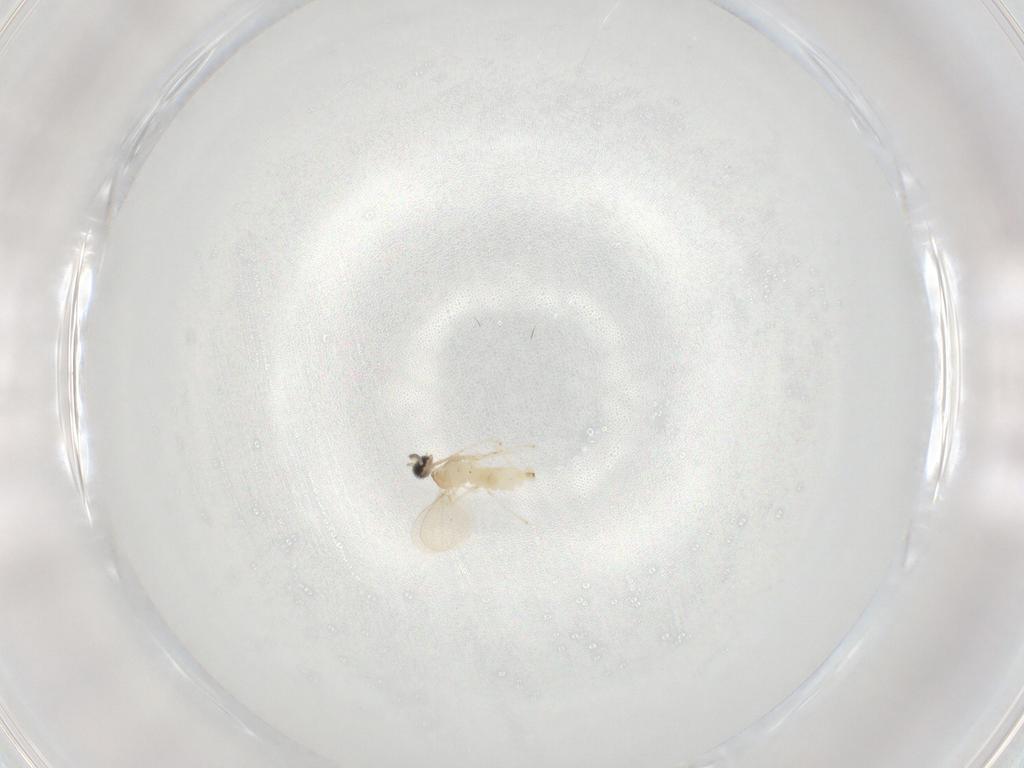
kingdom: Animalia
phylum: Arthropoda
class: Insecta
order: Diptera
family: Cecidomyiidae
